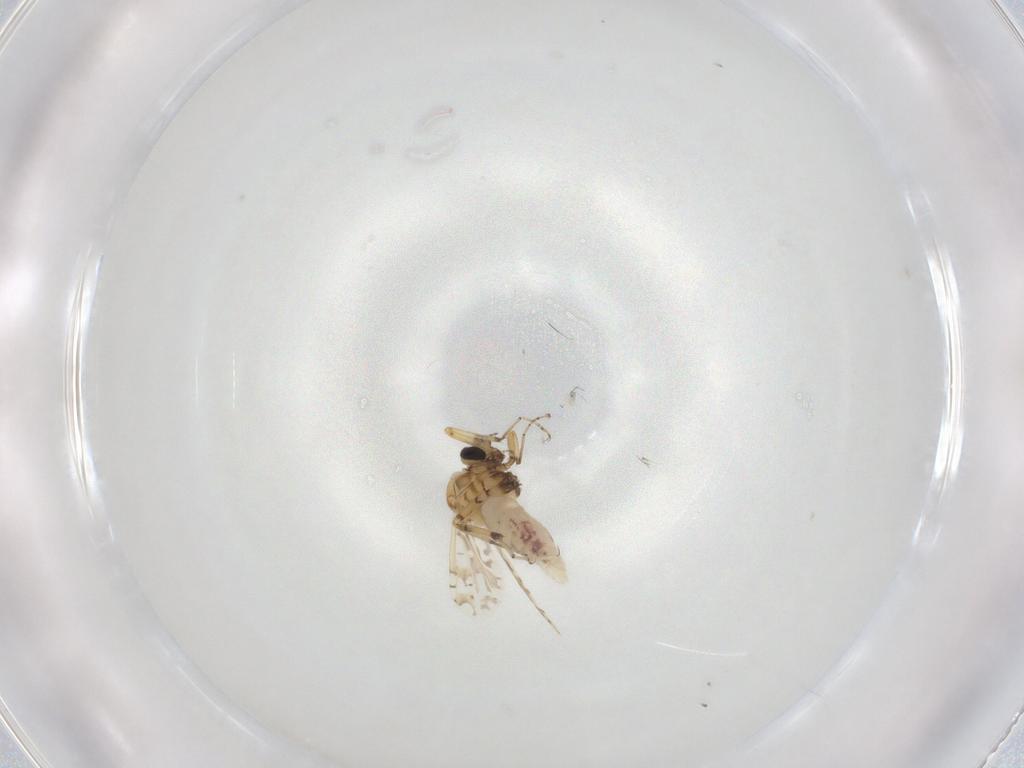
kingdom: Animalia
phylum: Arthropoda
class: Insecta
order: Diptera
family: Ceratopogonidae
